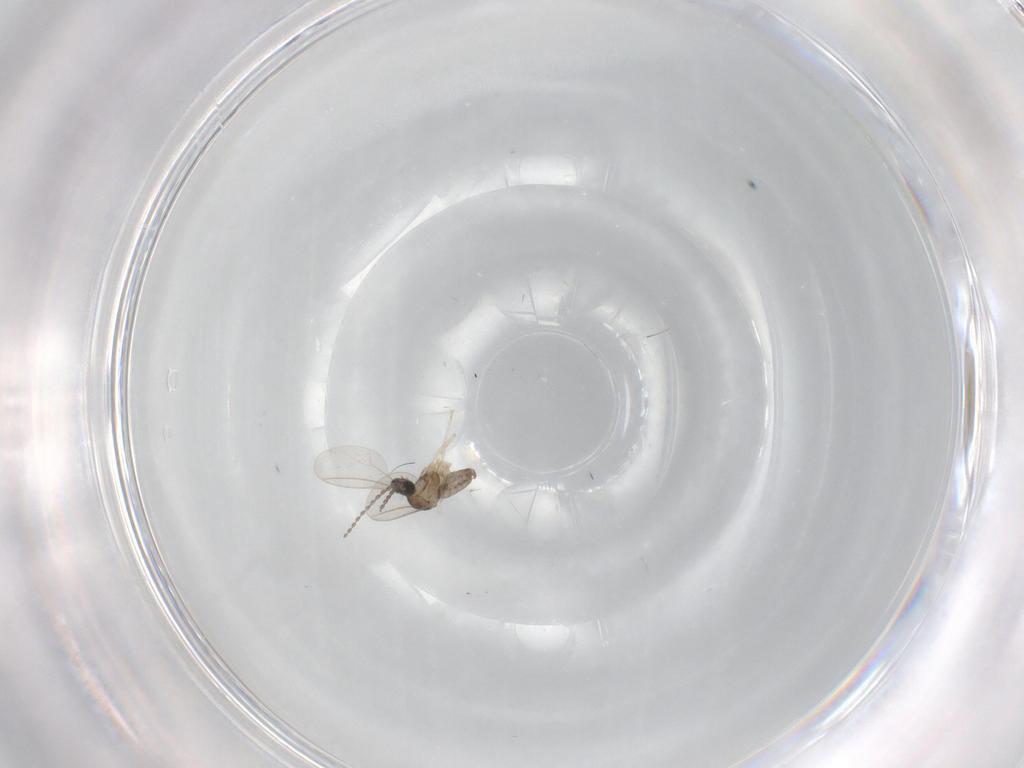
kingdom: Animalia
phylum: Arthropoda
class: Insecta
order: Diptera
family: Cecidomyiidae
